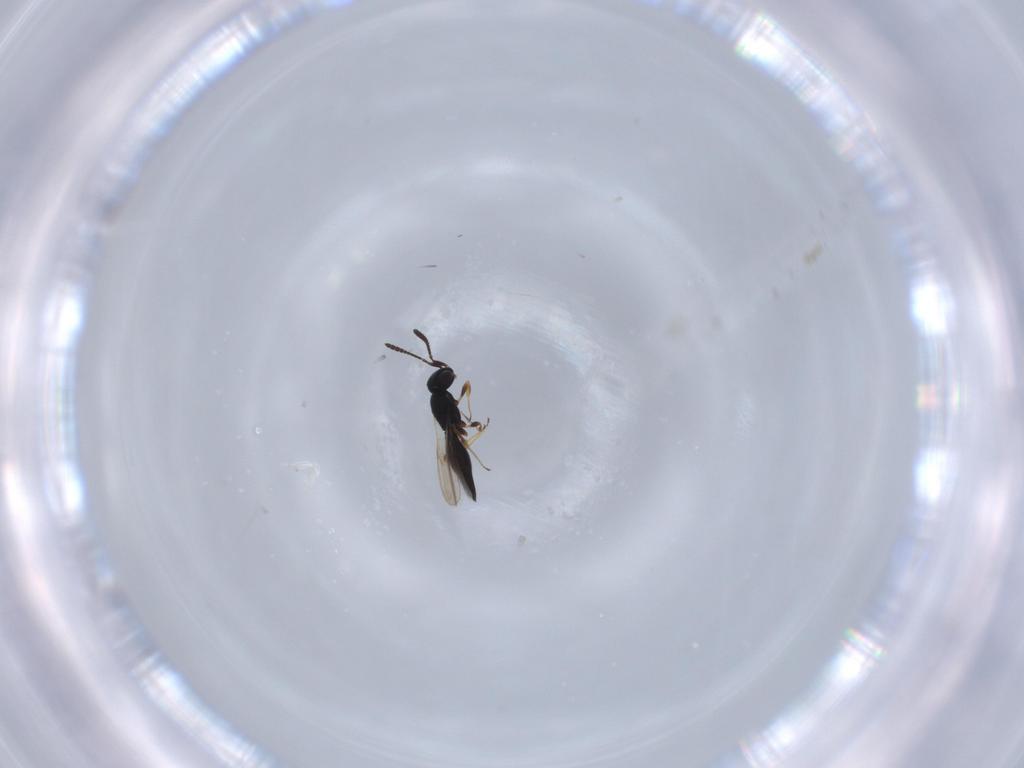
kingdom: Animalia
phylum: Arthropoda
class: Insecta
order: Hymenoptera
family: Scelionidae
